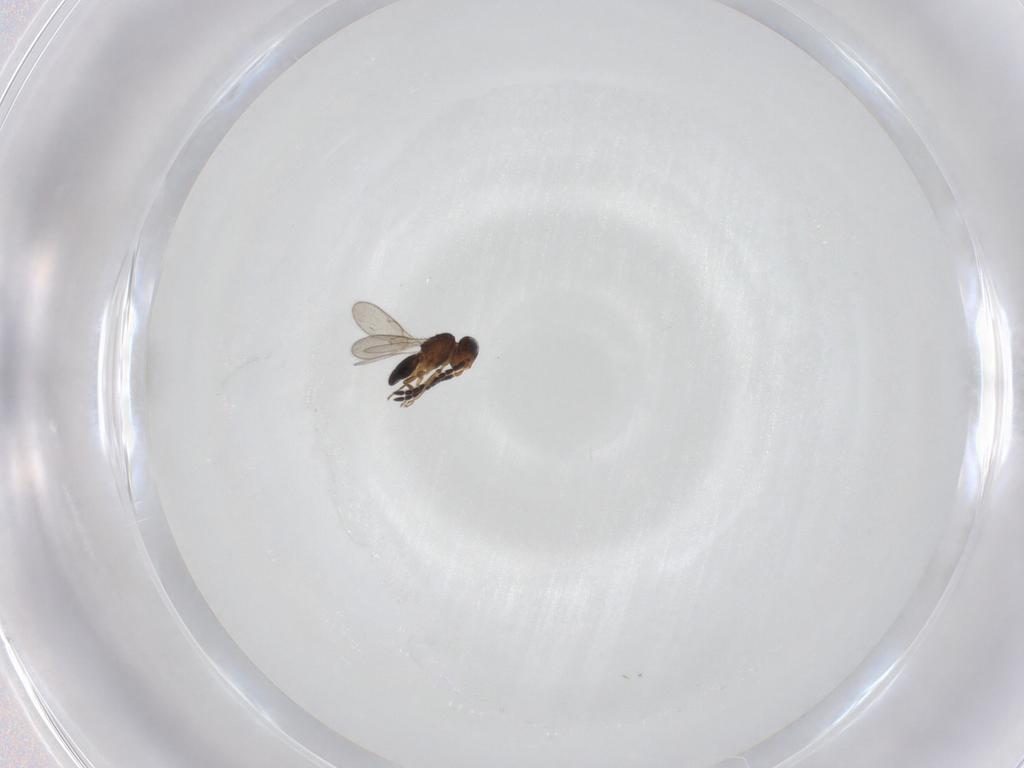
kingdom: Animalia
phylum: Arthropoda
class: Insecta
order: Hymenoptera
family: Scelionidae
